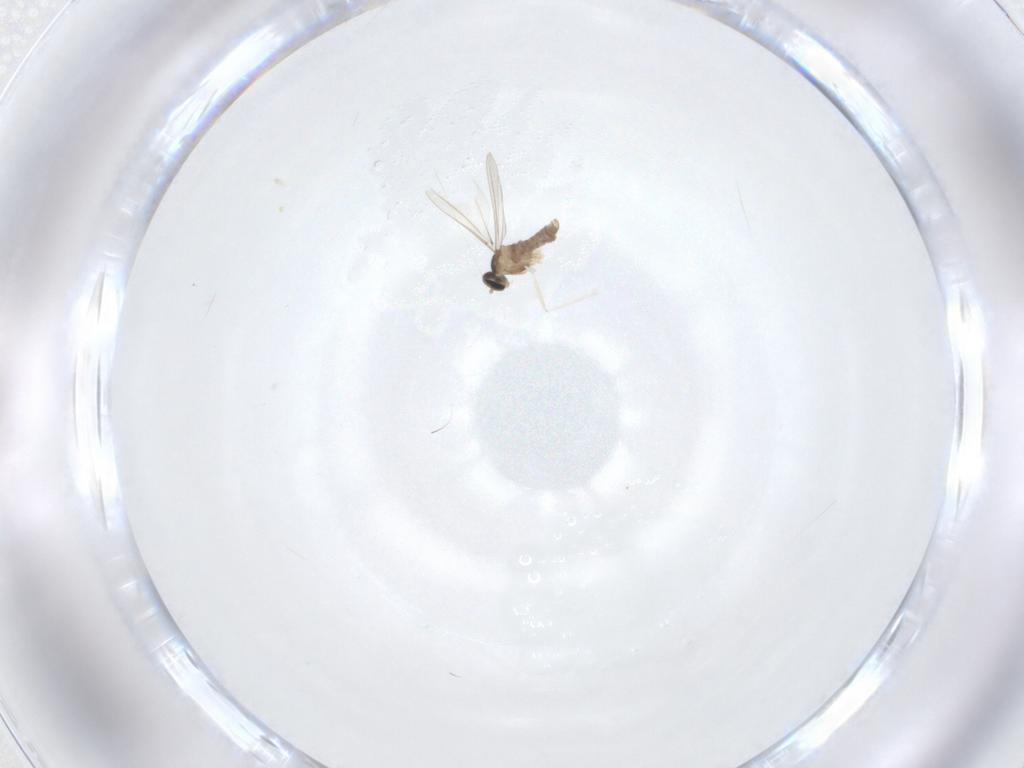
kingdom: Animalia
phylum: Arthropoda
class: Insecta
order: Diptera
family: Cecidomyiidae
